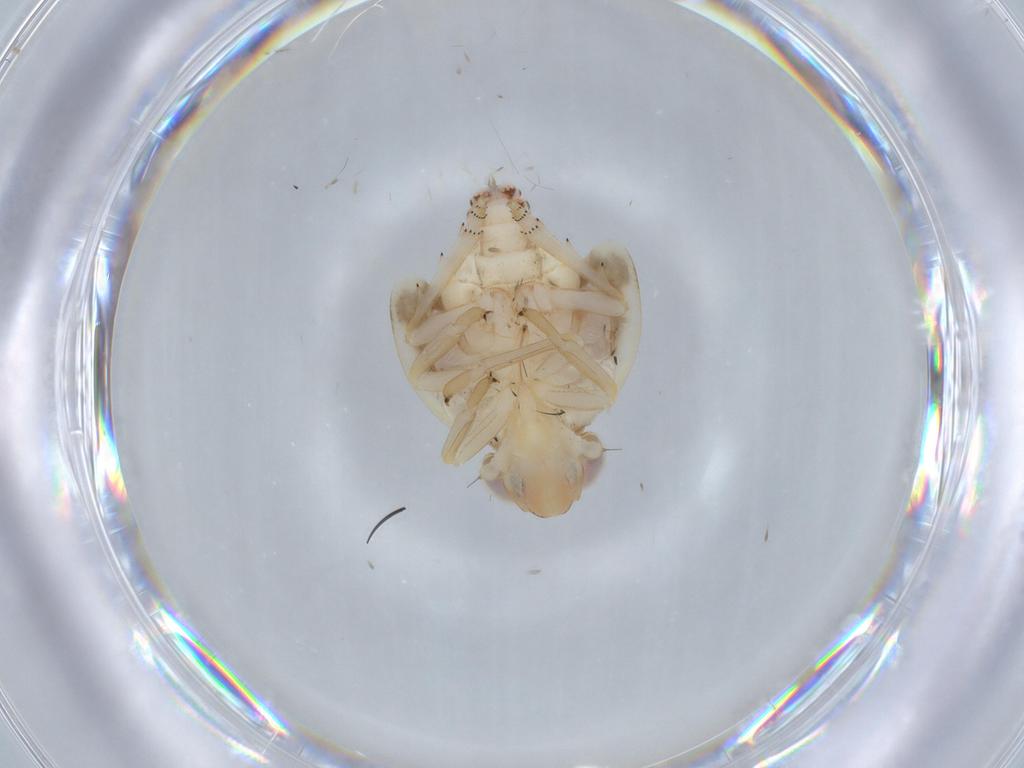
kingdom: Animalia
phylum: Arthropoda
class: Insecta
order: Hemiptera
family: Nogodinidae
